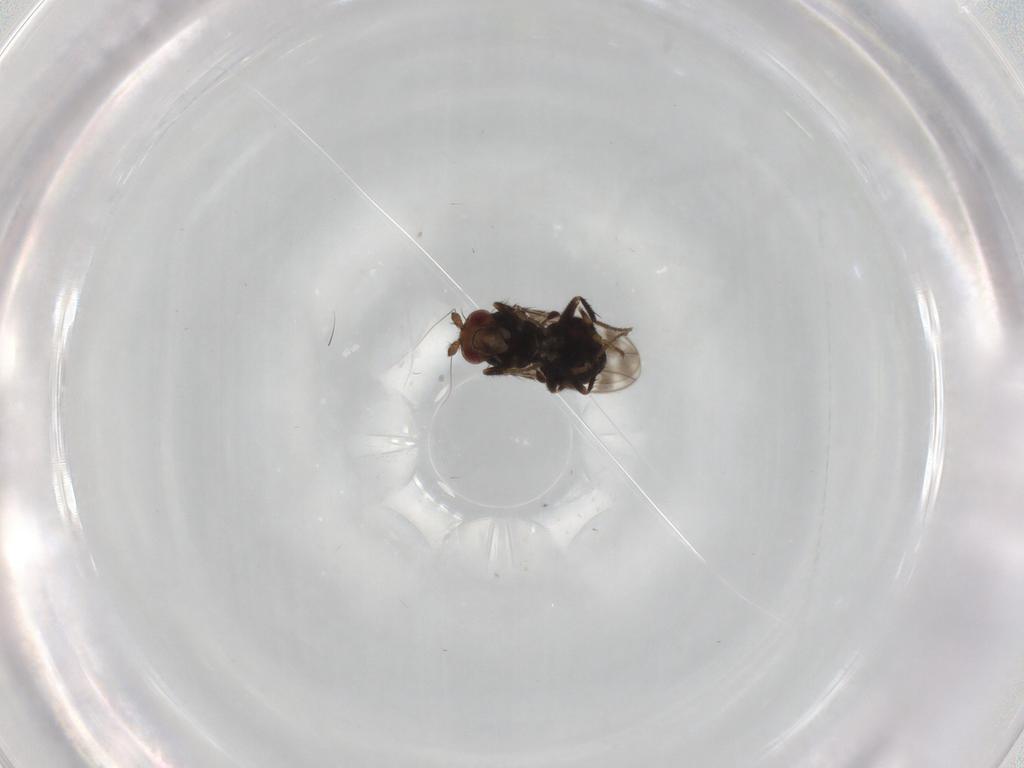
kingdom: Animalia
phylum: Arthropoda
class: Insecta
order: Diptera
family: Sphaeroceridae
